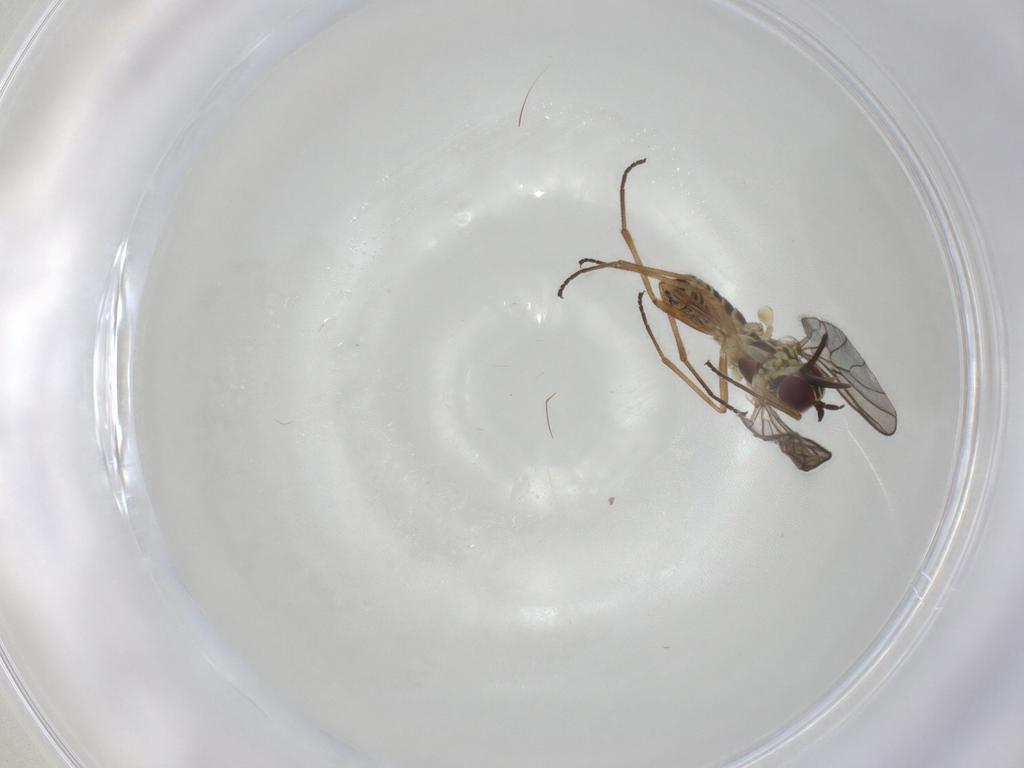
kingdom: Animalia
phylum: Arthropoda
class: Insecta
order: Diptera
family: Bombyliidae
